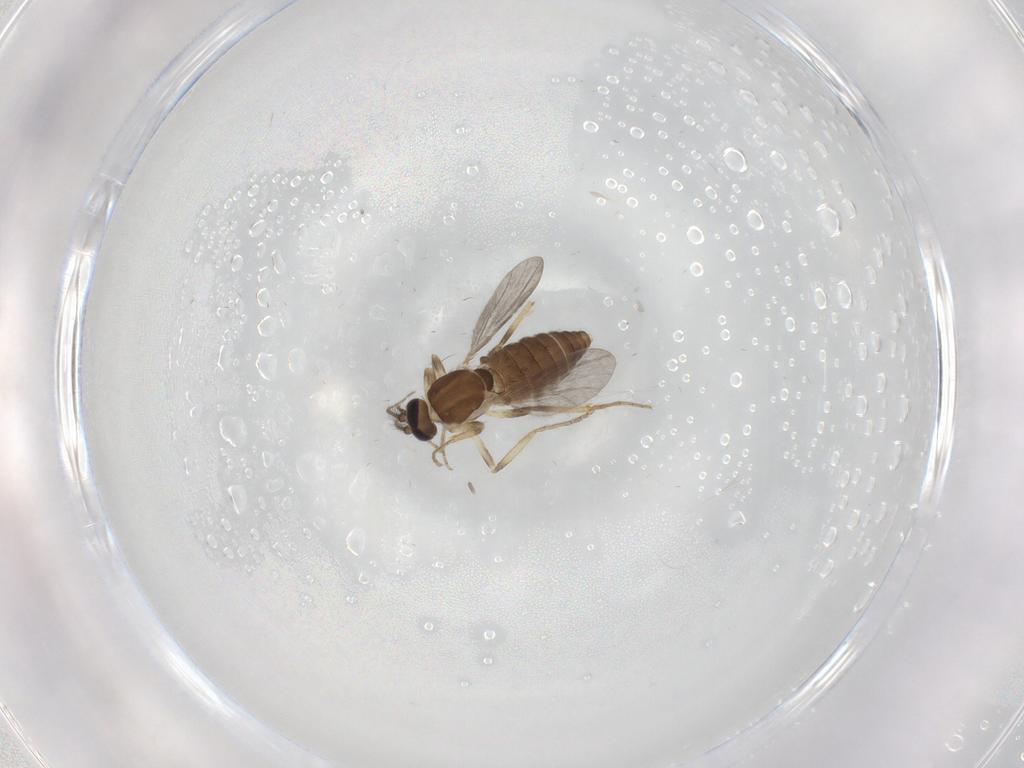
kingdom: Animalia
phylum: Arthropoda
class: Insecta
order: Diptera
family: Ceratopogonidae
